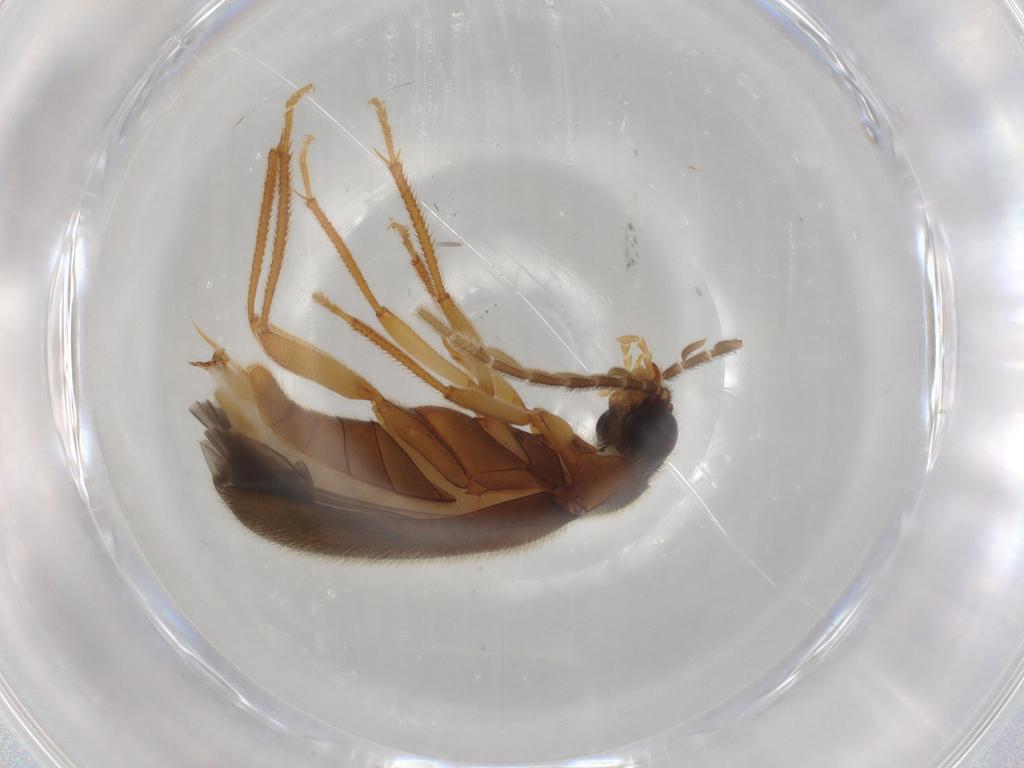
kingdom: Animalia
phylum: Arthropoda
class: Insecta
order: Coleoptera
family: Ptilodactylidae
